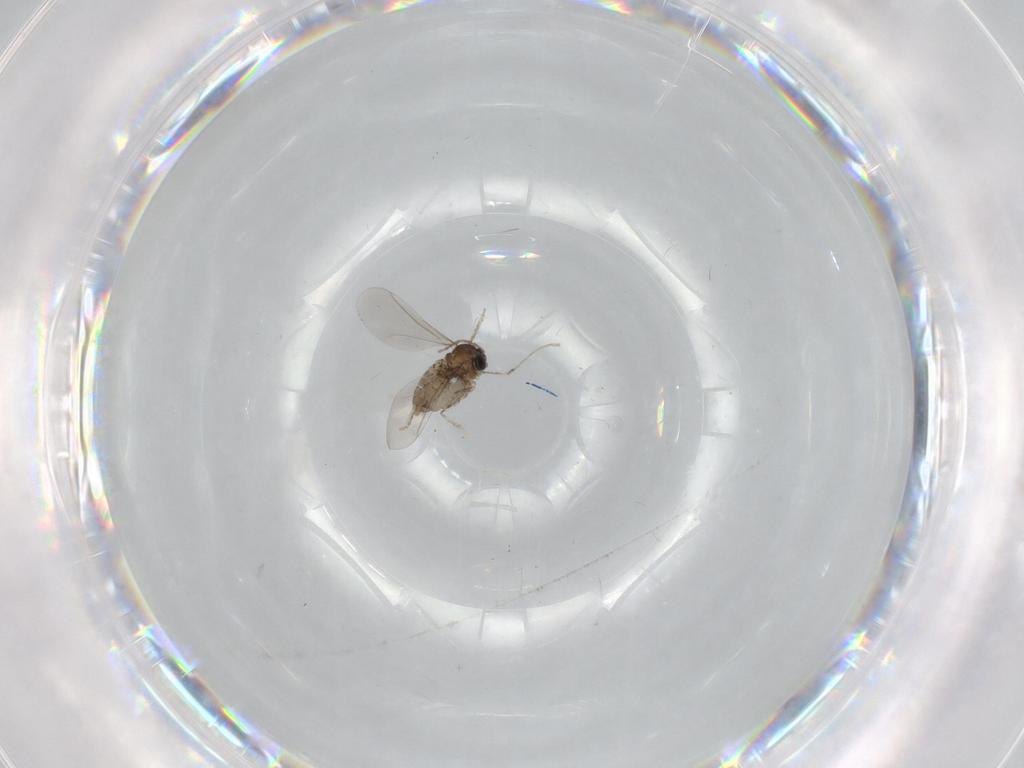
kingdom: Animalia
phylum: Arthropoda
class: Insecta
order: Diptera
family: Cecidomyiidae
